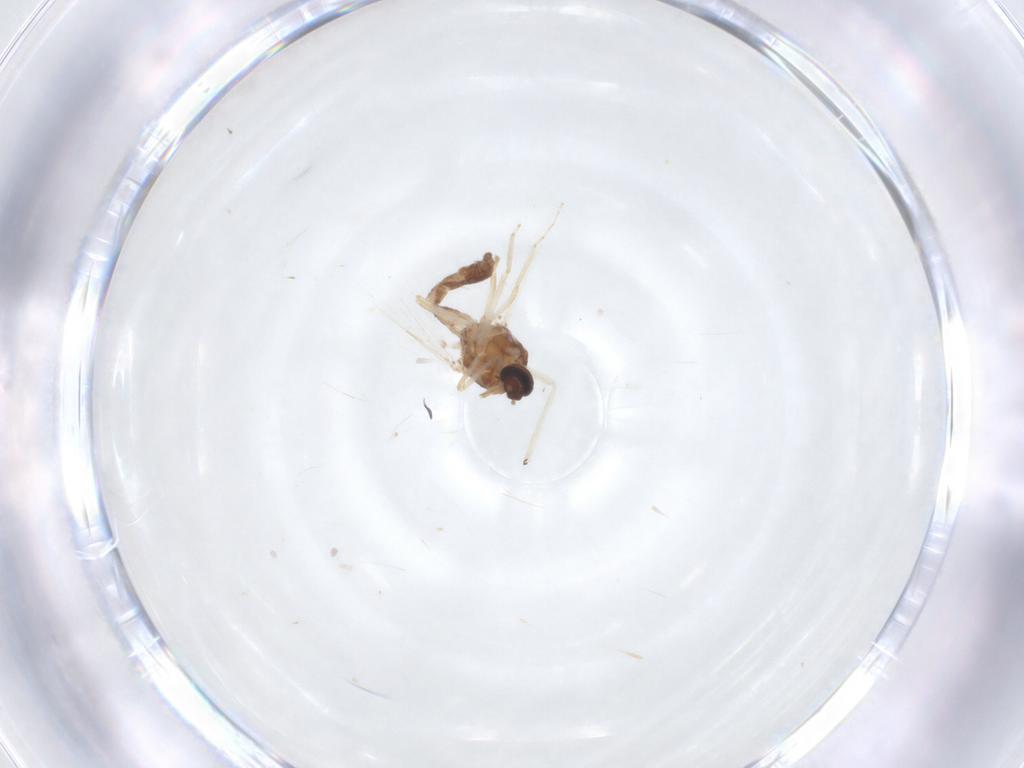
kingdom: Animalia
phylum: Arthropoda
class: Insecta
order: Diptera
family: Ceratopogonidae
